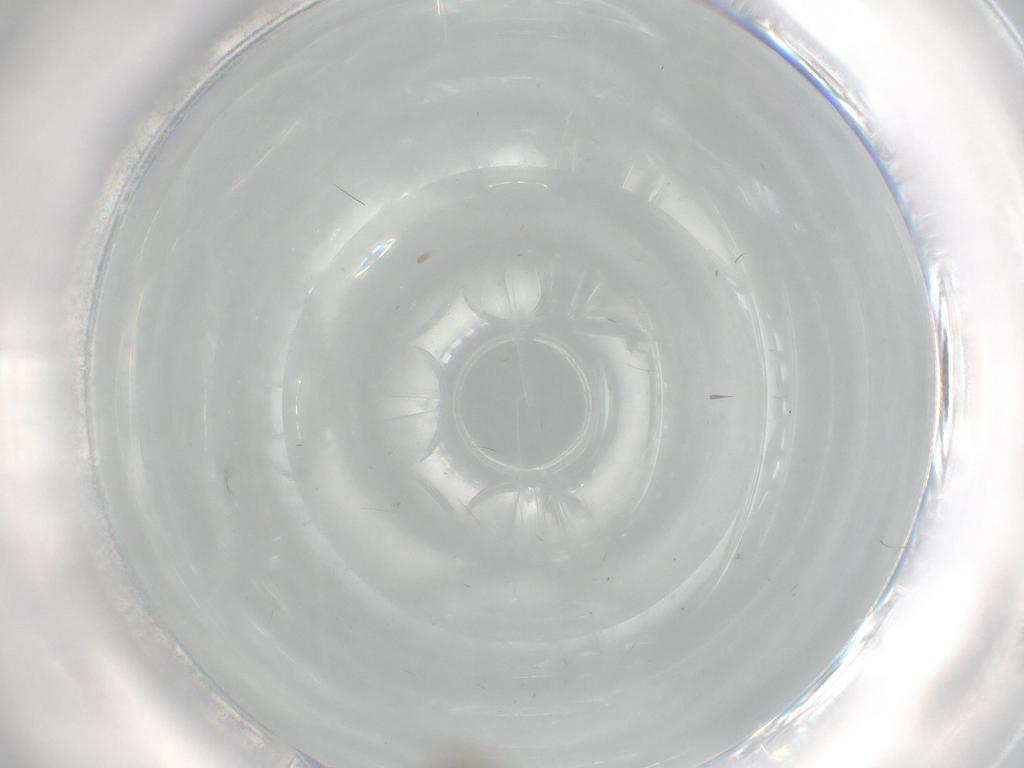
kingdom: Animalia
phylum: Arthropoda
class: Insecta
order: Diptera
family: Psychodidae
